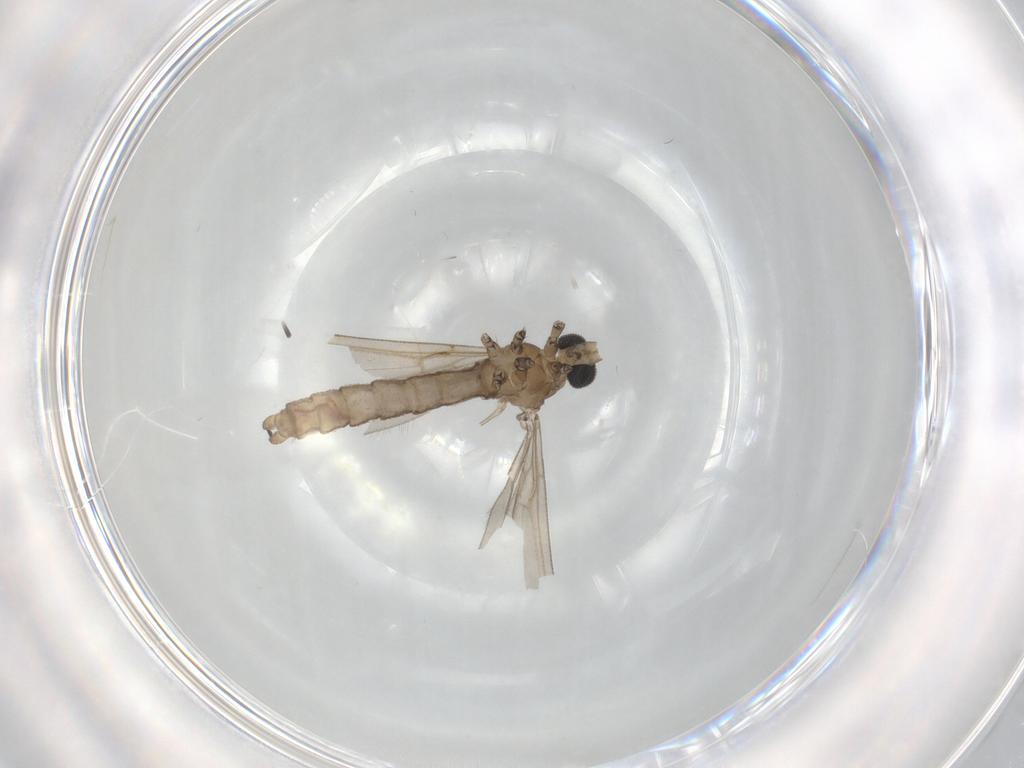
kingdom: Animalia
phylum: Arthropoda
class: Insecta
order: Diptera
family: Limoniidae
